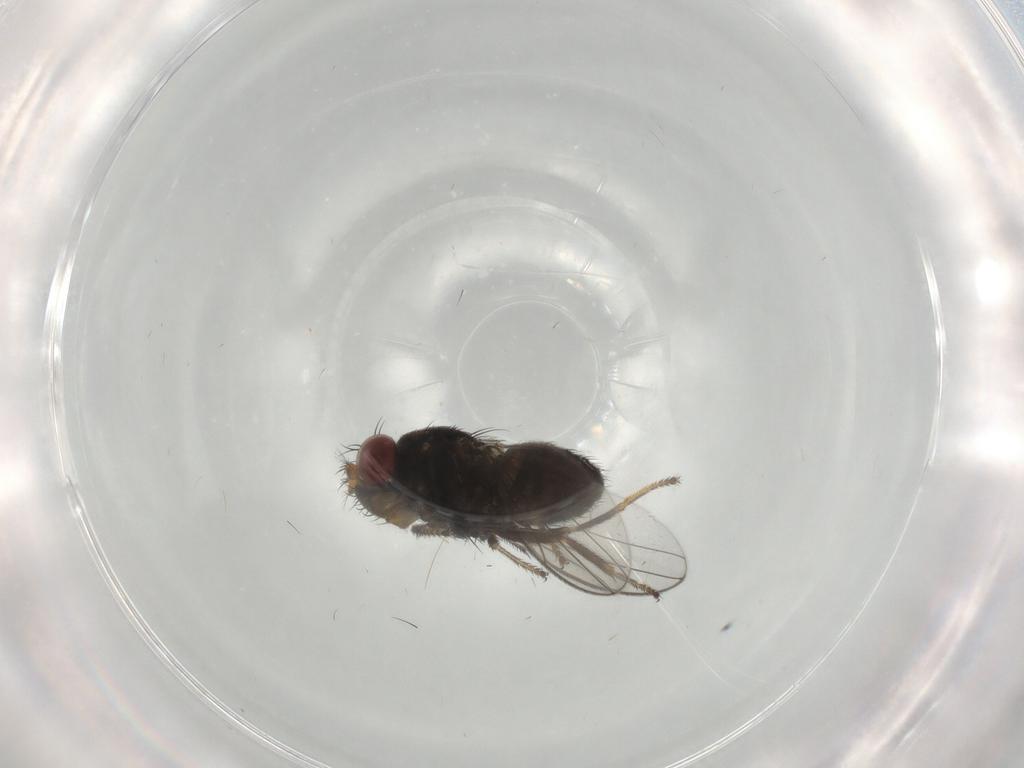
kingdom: Animalia
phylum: Arthropoda
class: Insecta
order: Diptera
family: Ephydridae
